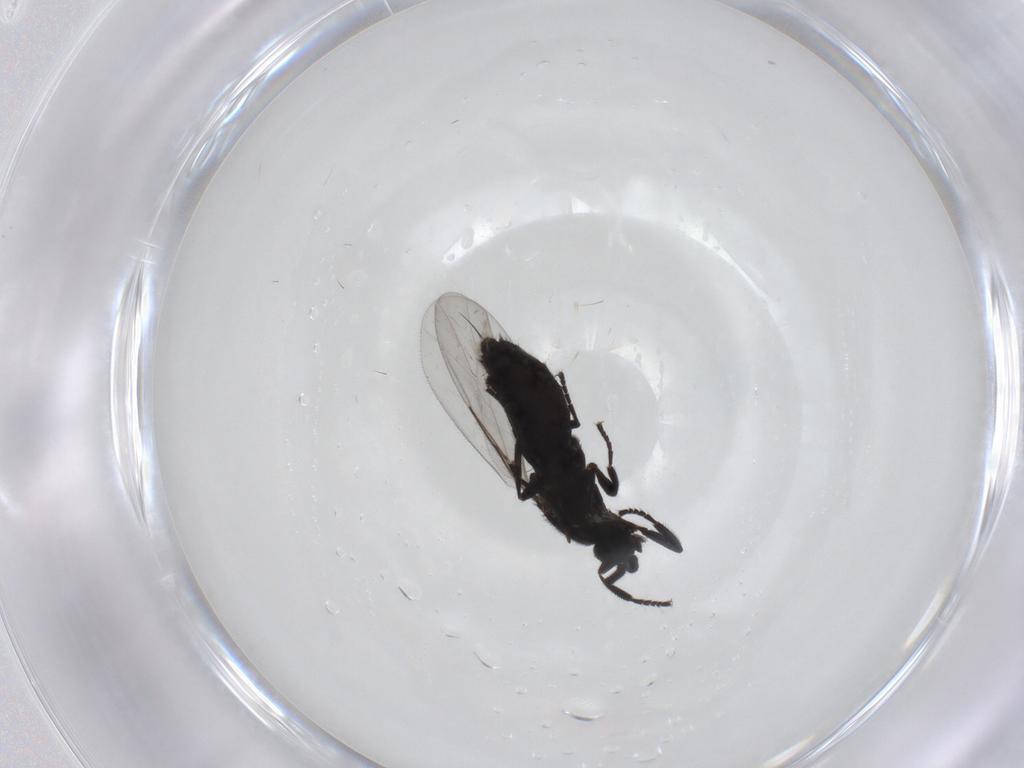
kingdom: Animalia
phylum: Arthropoda
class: Insecta
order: Diptera
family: Scatopsidae
